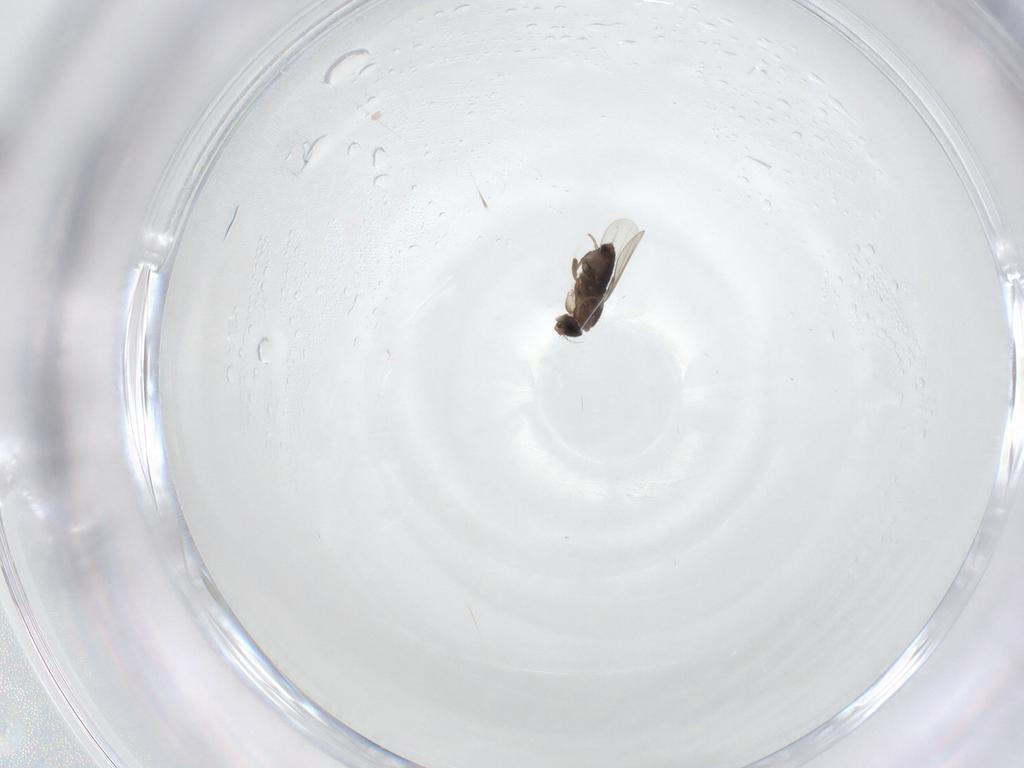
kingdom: Animalia
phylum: Arthropoda
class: Insecta
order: Diptera
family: Phoridae
